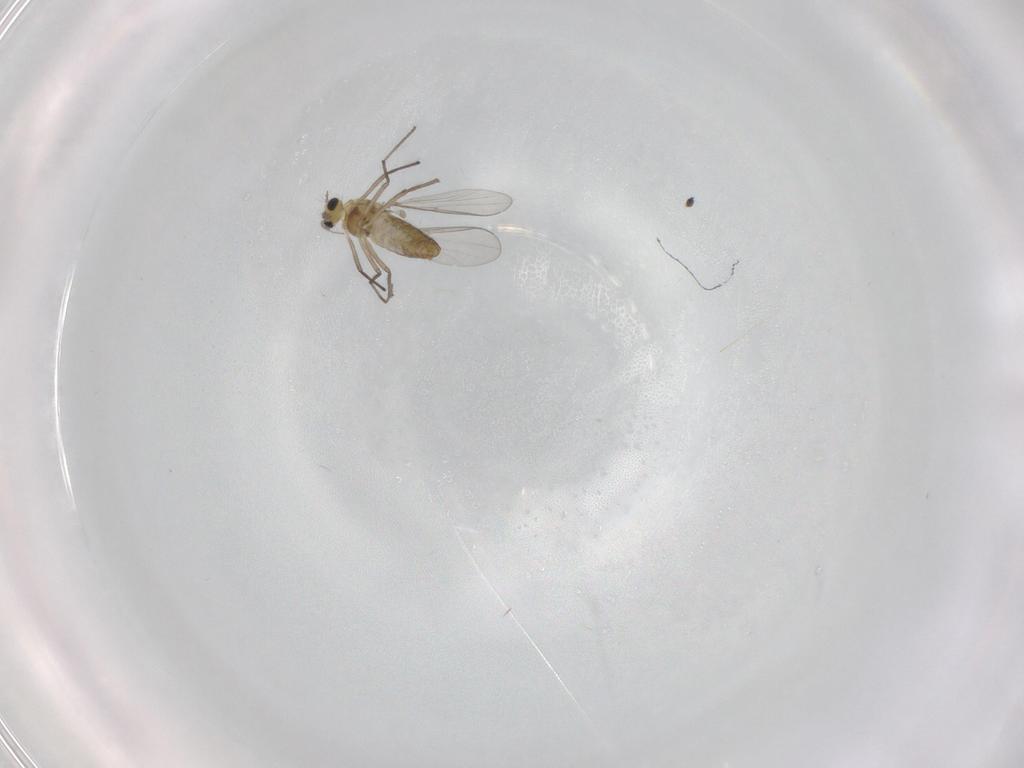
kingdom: Animalia
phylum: Arthropoda
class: Insecta
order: Diptera
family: Chironomidae
